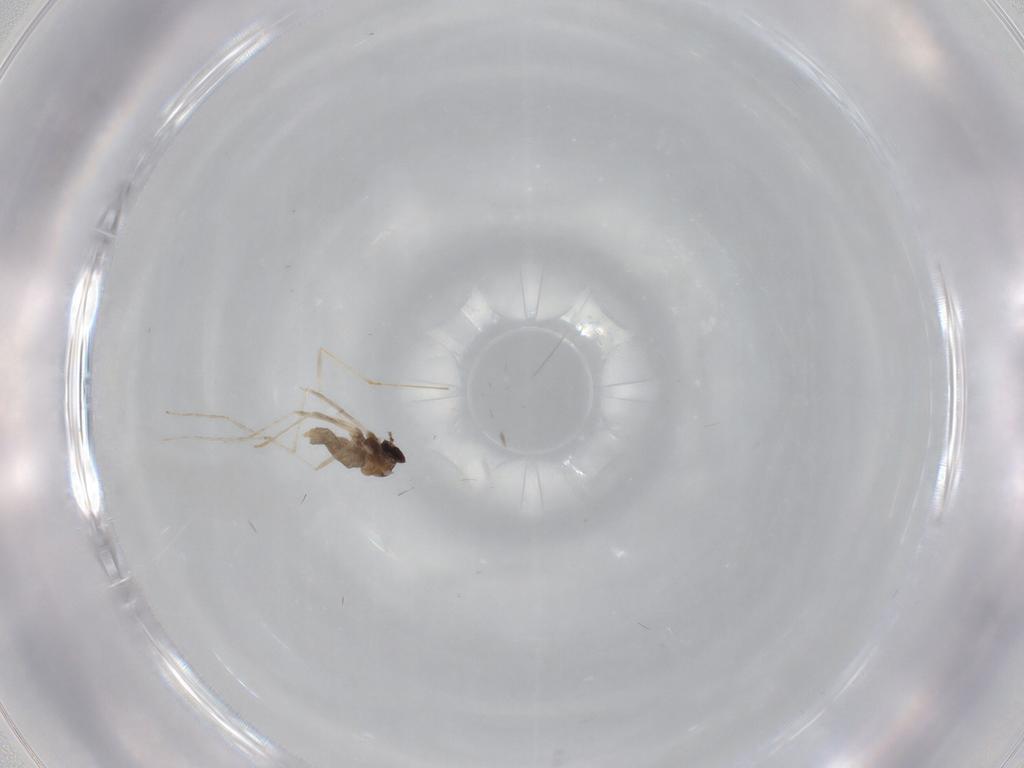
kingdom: Animalia
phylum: Arthropoda
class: Insecta
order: Diptera
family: Cecidomyiidae
